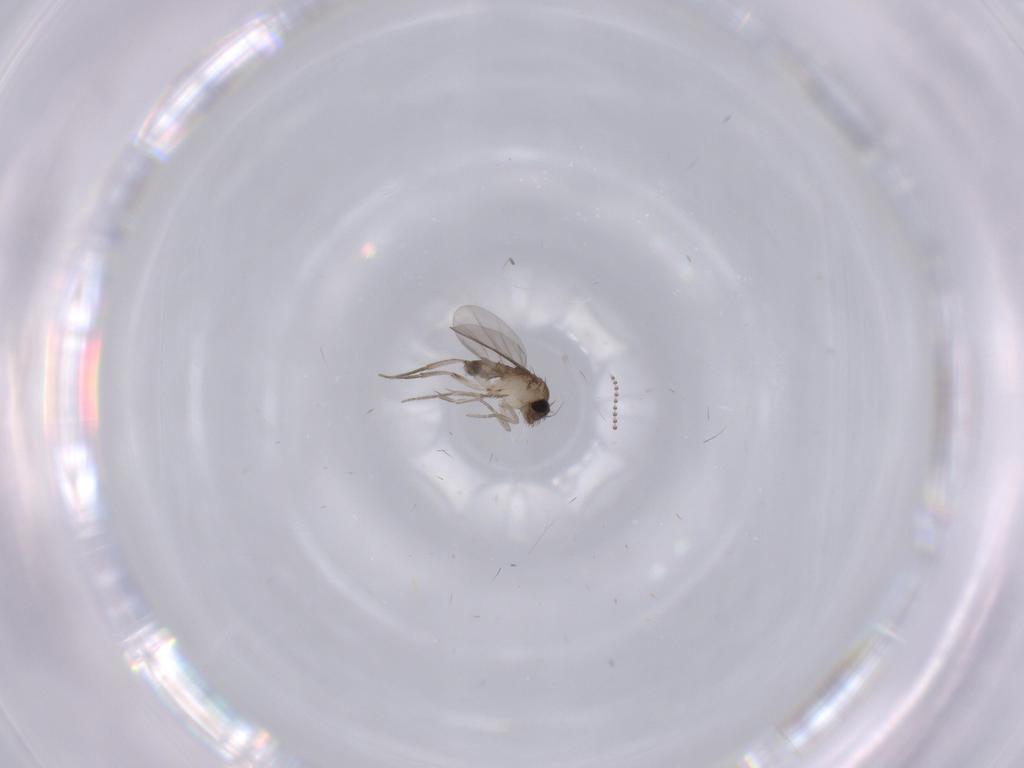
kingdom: Animalia
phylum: Arthropoda
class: Insecta
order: Diptera
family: Phoridae
